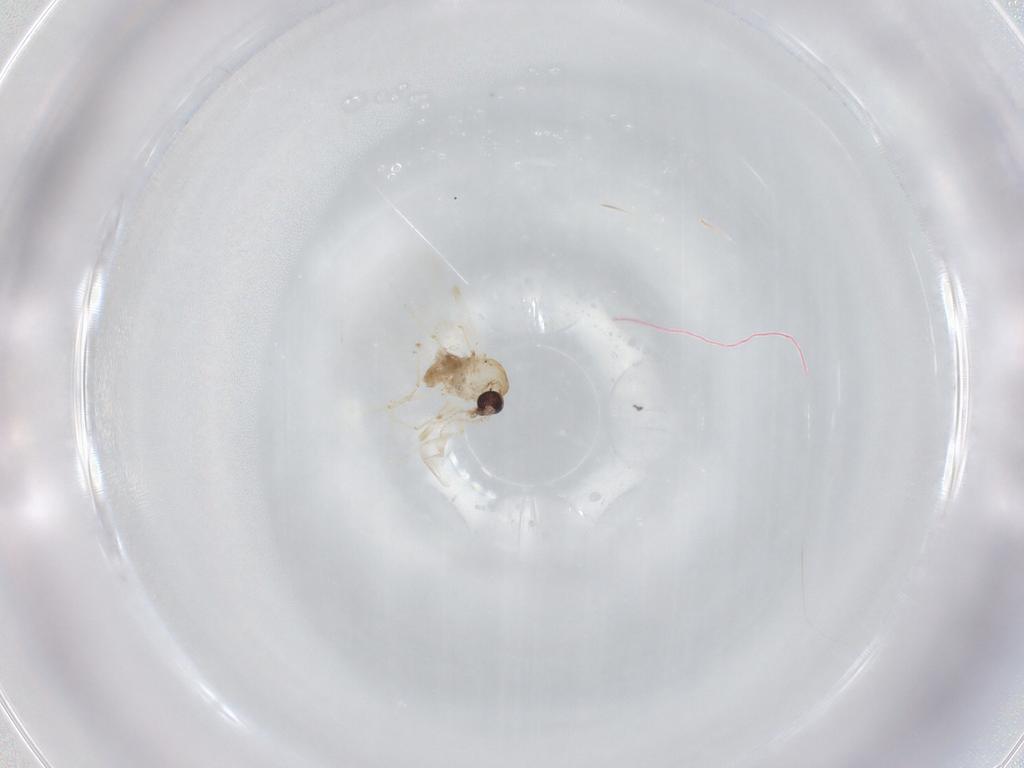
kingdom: Animalia
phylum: Arthropoda
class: Insecta
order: Diptera
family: Ceratopogonidae
